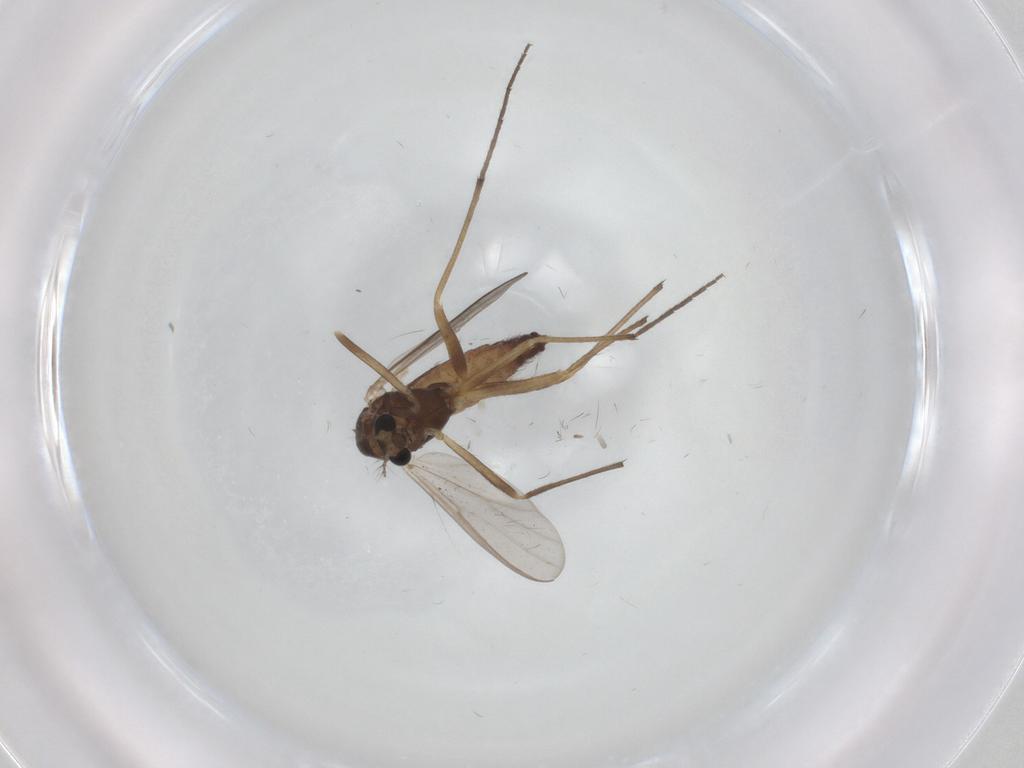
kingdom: Animalia
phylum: Arthropoda
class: Insecta
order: Diptera
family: Chironomidae
